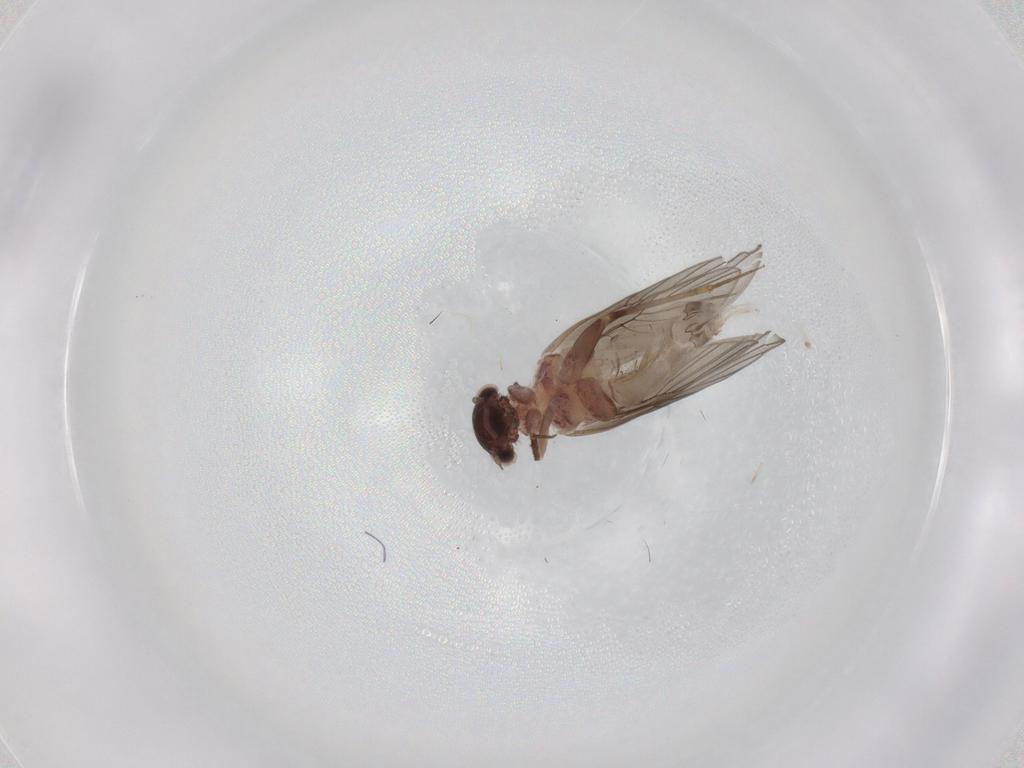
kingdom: Animalia
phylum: Arthropoda
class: Insecta
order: Psocodea
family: Lepidopsocidae
